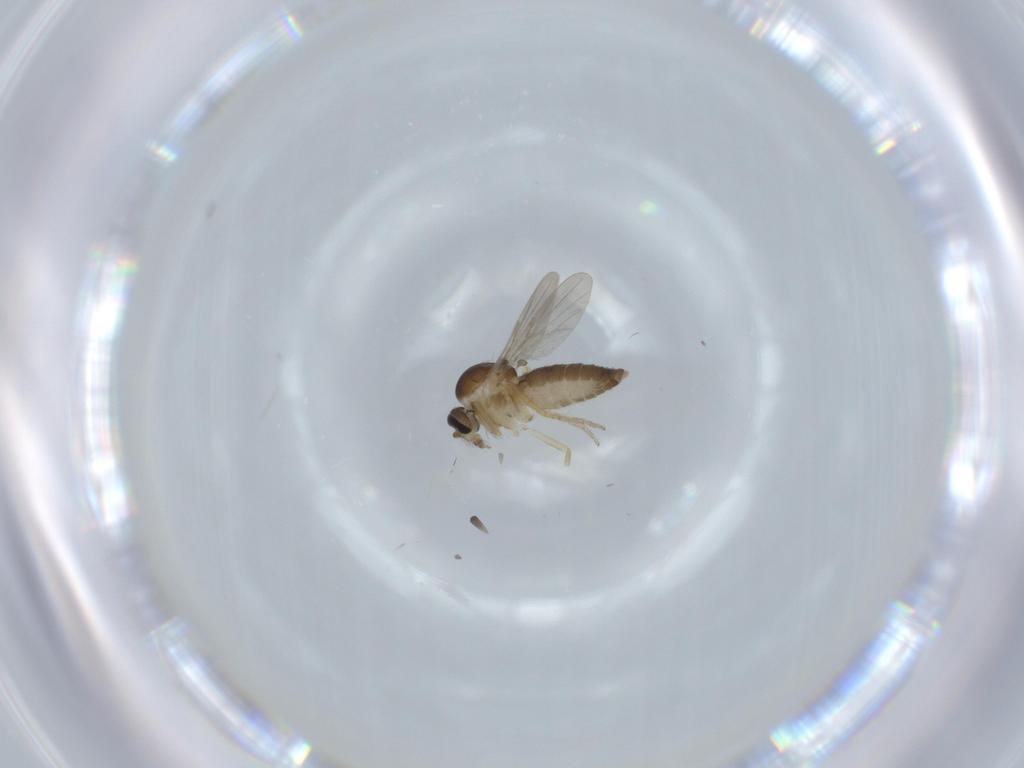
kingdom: Animalia
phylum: Arthropoda
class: Insecta
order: Diptera
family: Ceratopogonidae
